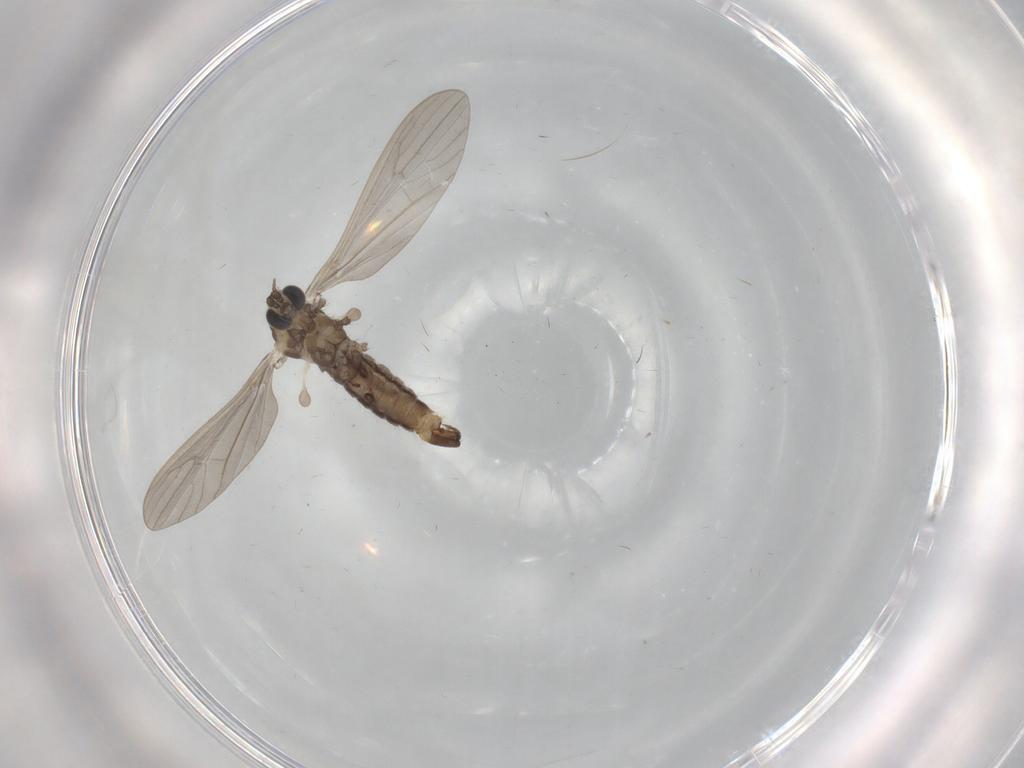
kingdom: Animalia
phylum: Arthropoda
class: Insecta
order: Diptera
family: Limoniidae
